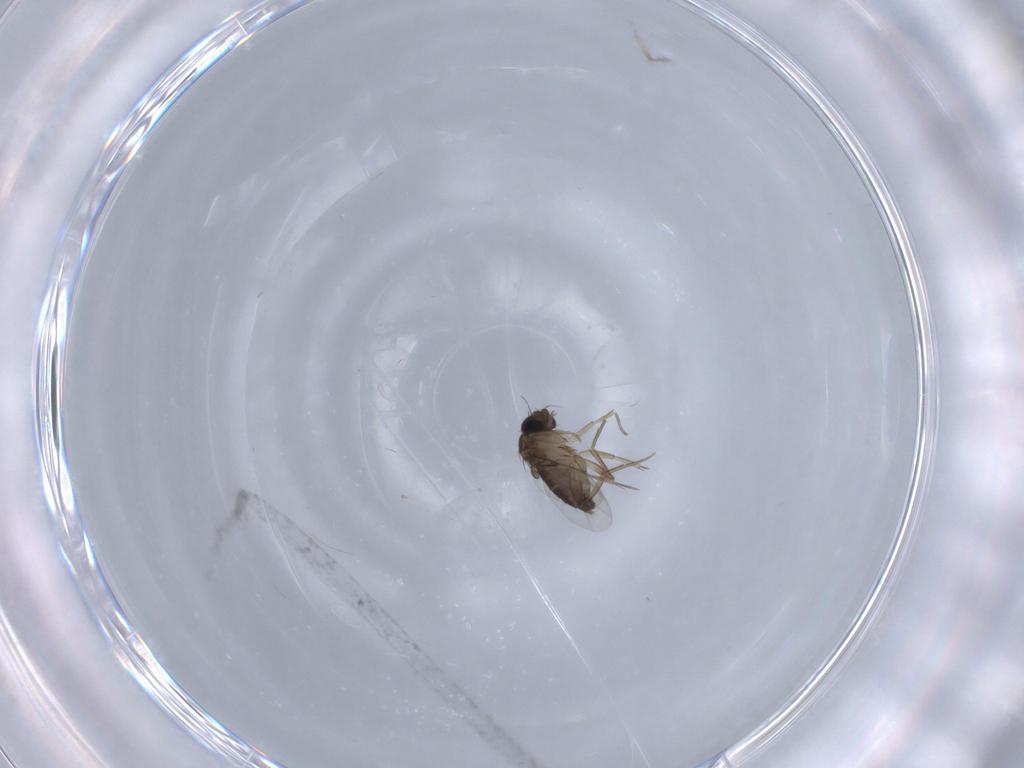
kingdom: Animalia
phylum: Arthropoda
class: Insecta
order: Diptera
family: Phoridae
